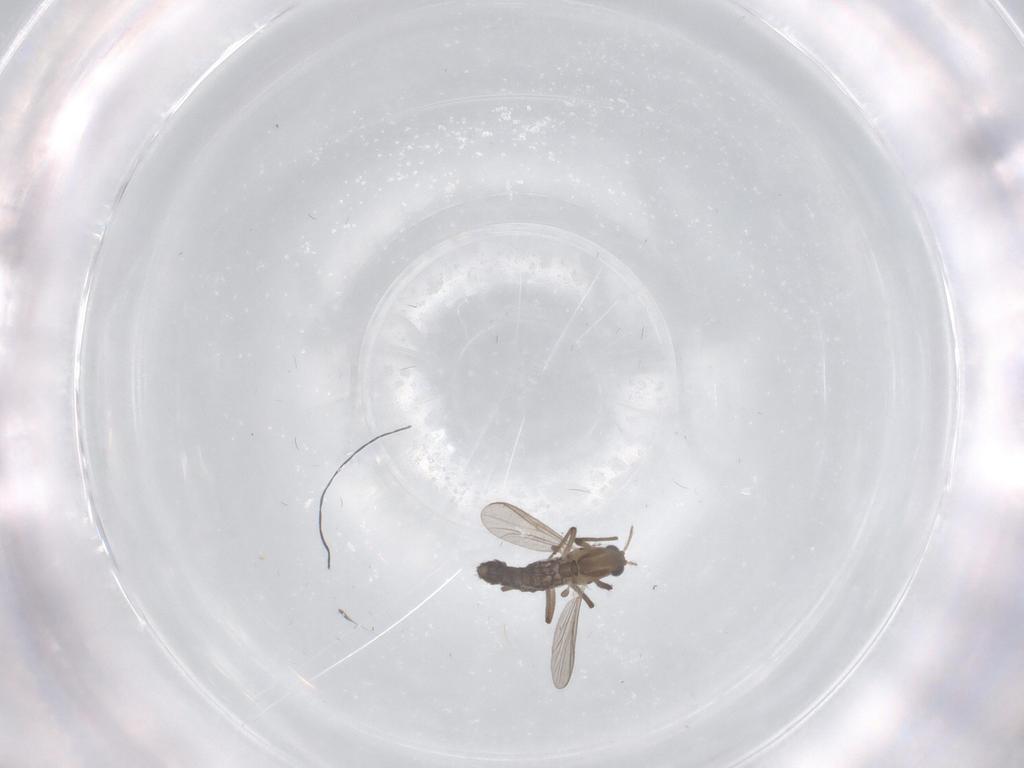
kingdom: Animalia
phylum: Arthropoda
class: Insecta
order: Diptera
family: Chironomidae
